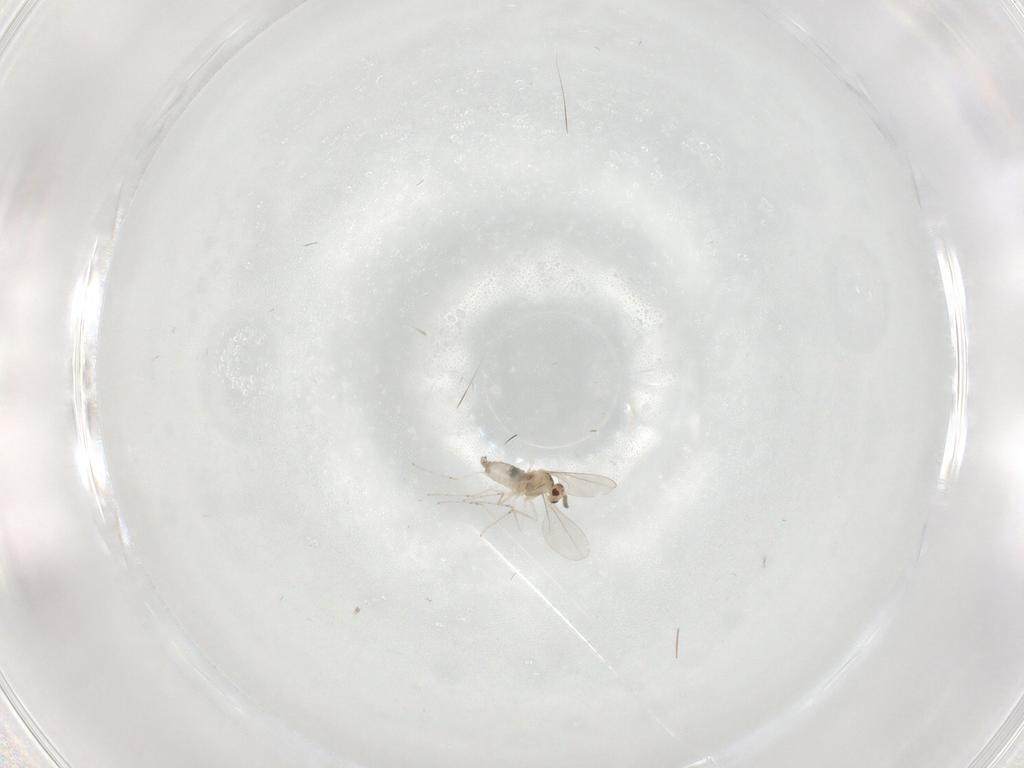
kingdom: Animalia
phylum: Arthropoda
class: Insecta
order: Diptera
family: Cecidomyiidae
